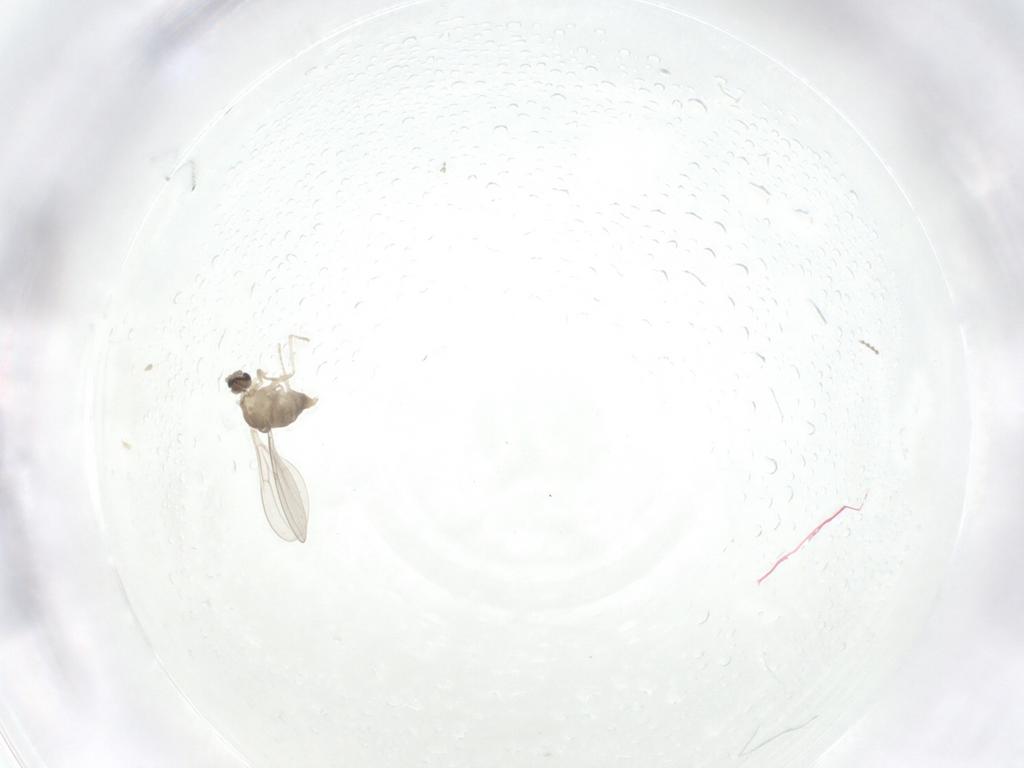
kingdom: Animalia
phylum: Arthropoda
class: Insecta
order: Diptera
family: Cecidomyiidae
